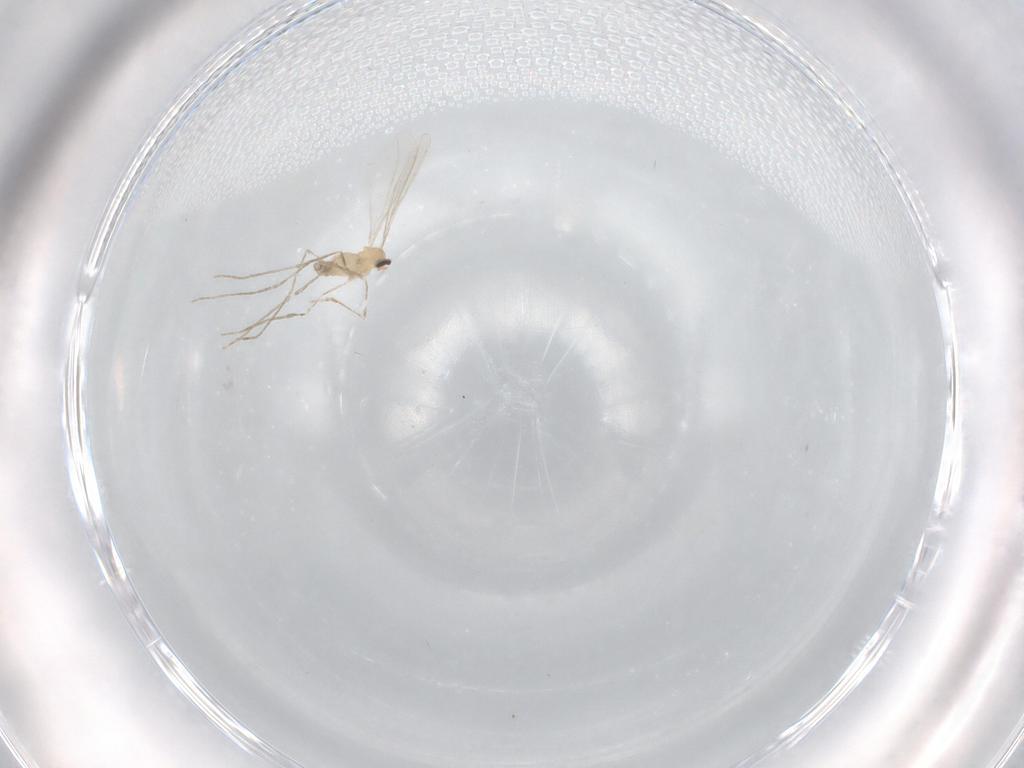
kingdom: Animalia
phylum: Arthropoda
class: Insecta
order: Diptera
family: Cecidomyiidae
